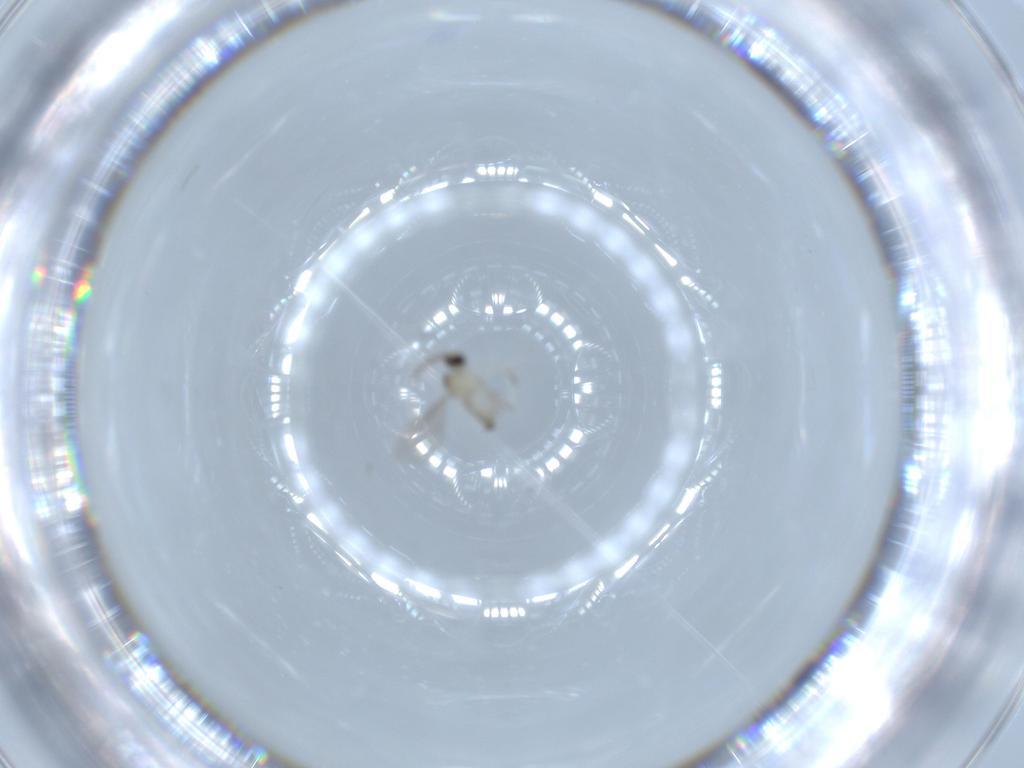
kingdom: Animalia
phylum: Arthropoda
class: Insecta
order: Diptera
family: Cecidomyiidae
